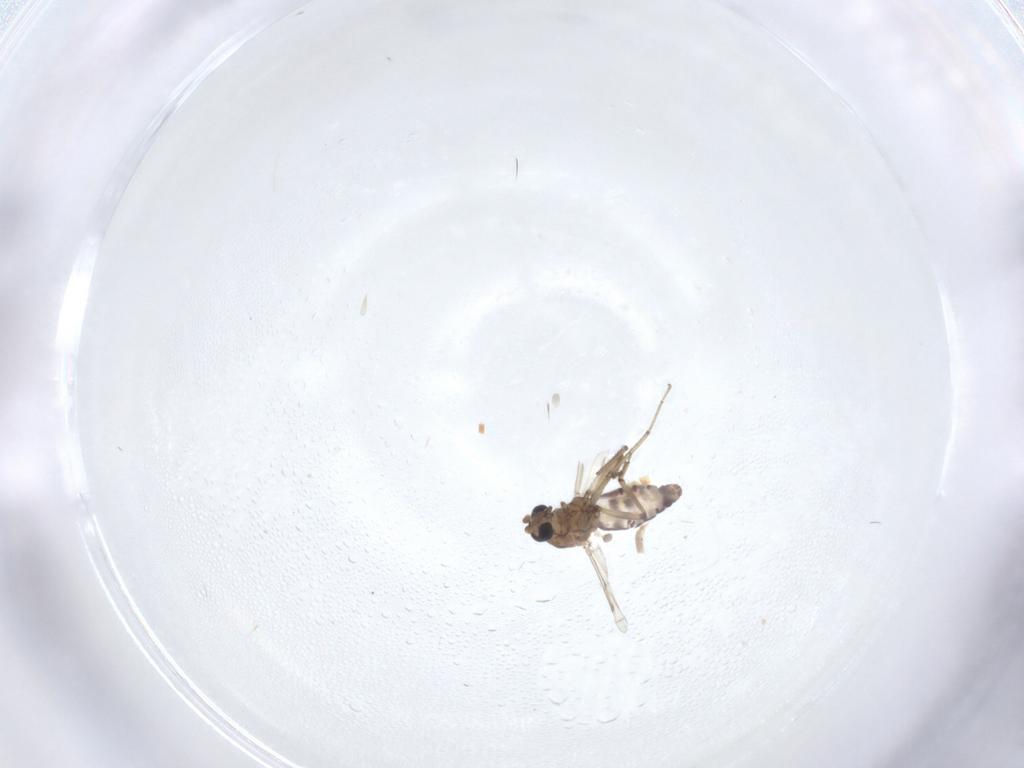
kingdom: Animalia
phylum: Arthropoda
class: Insecta
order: Diptera
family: Ceratopogonidae
